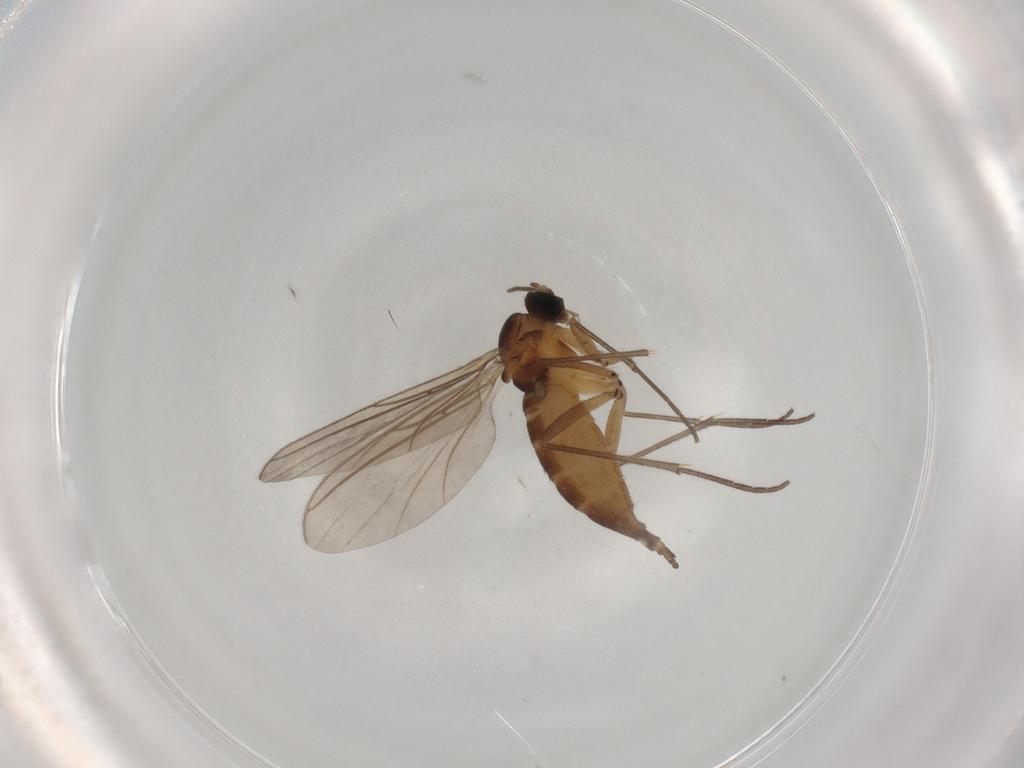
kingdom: Animalia
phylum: Arthropoda
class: Insecta
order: Diptera
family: Sciaridae
